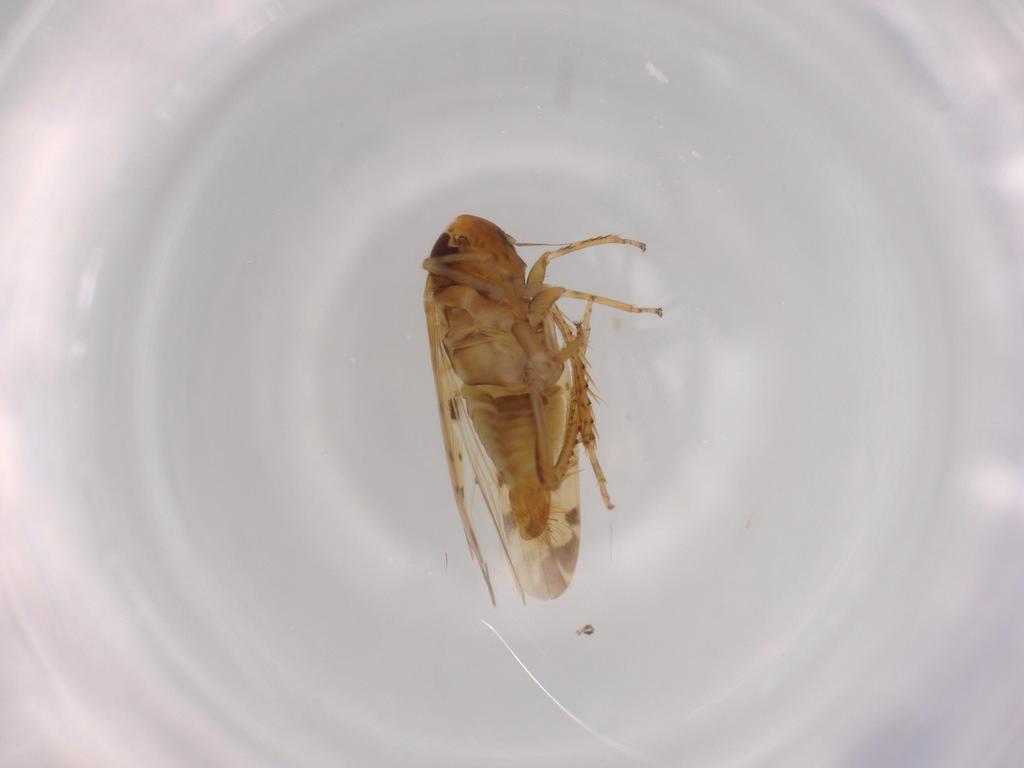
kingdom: Animalia
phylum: Arthropoda
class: Insecta
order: Hemiptera
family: Cicadellidae
